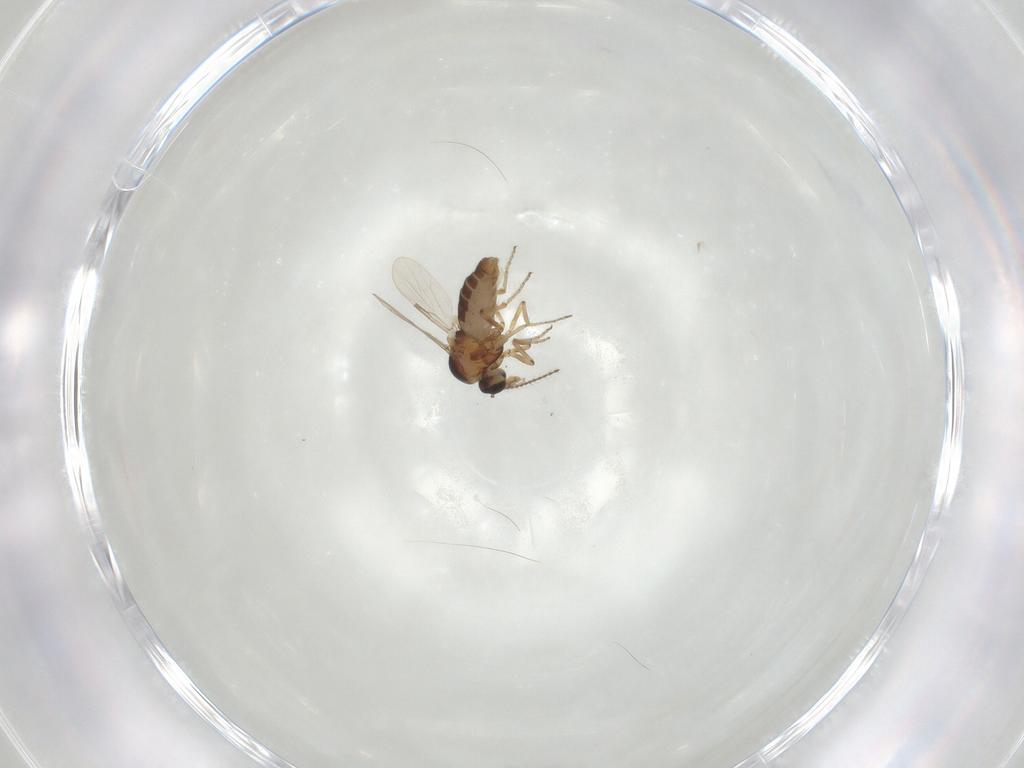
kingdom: Animalia
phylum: Arthropoda
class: Insecta
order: Diptera
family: Ceratopogonidae
